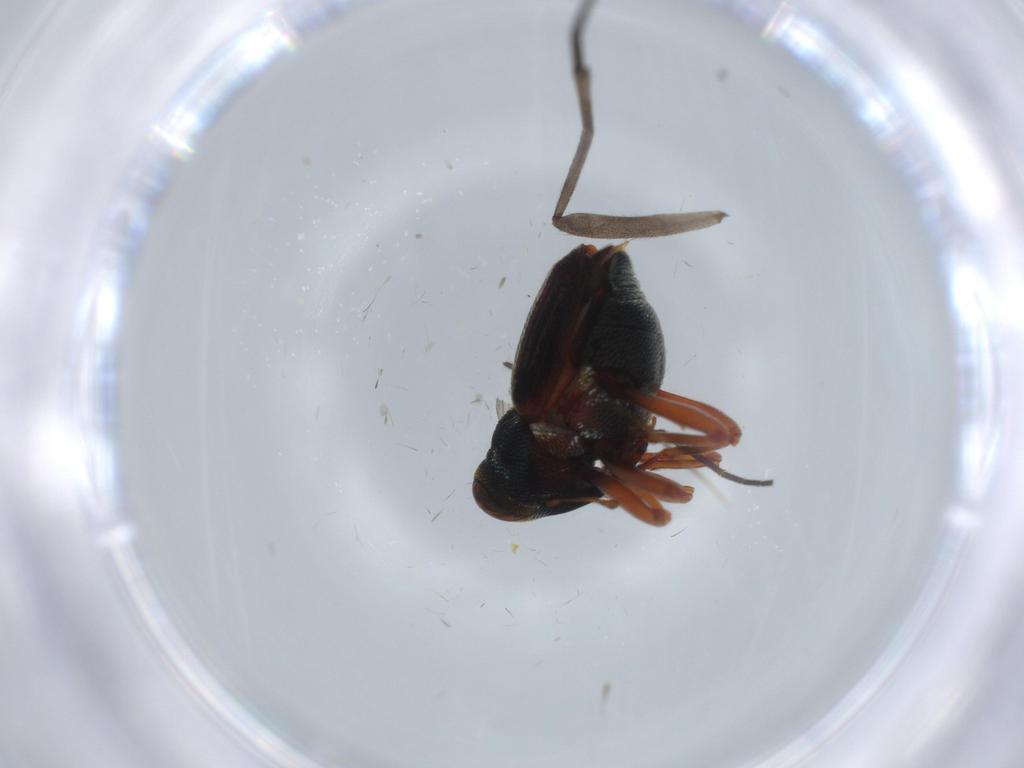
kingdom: Animalia
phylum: Arthropoda
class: Insecta
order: Coleoptera
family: Curculionidae
